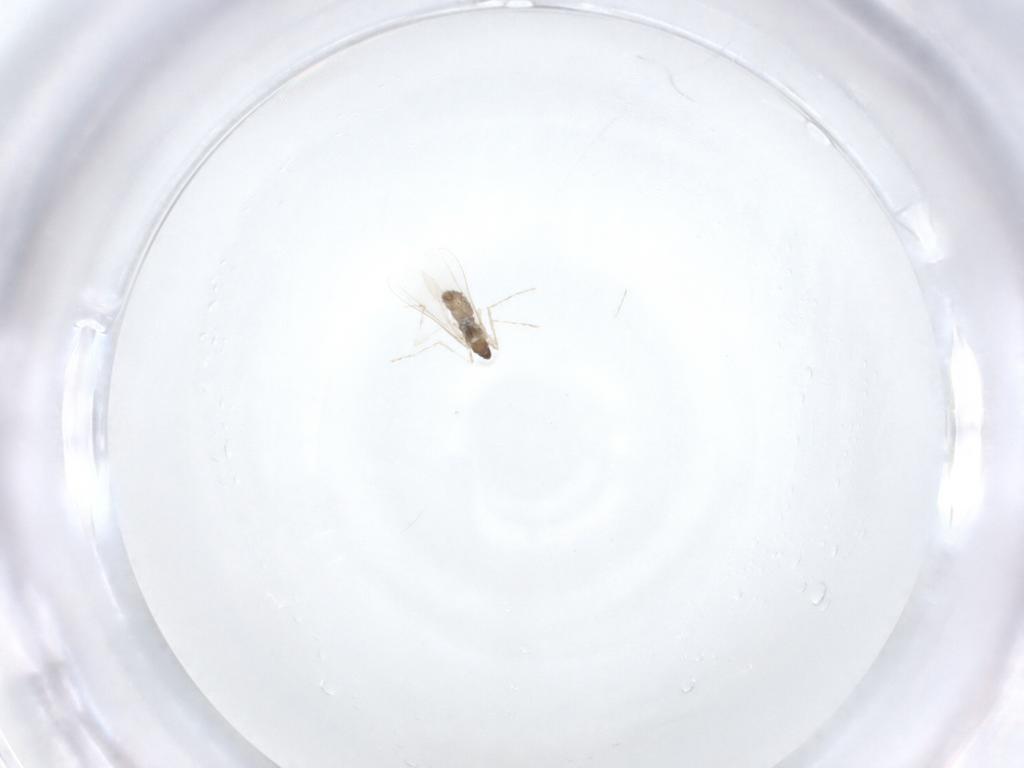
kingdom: Animalia
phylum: Arthropoda
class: Insecta
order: Diptera
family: Cecidomyiidae
